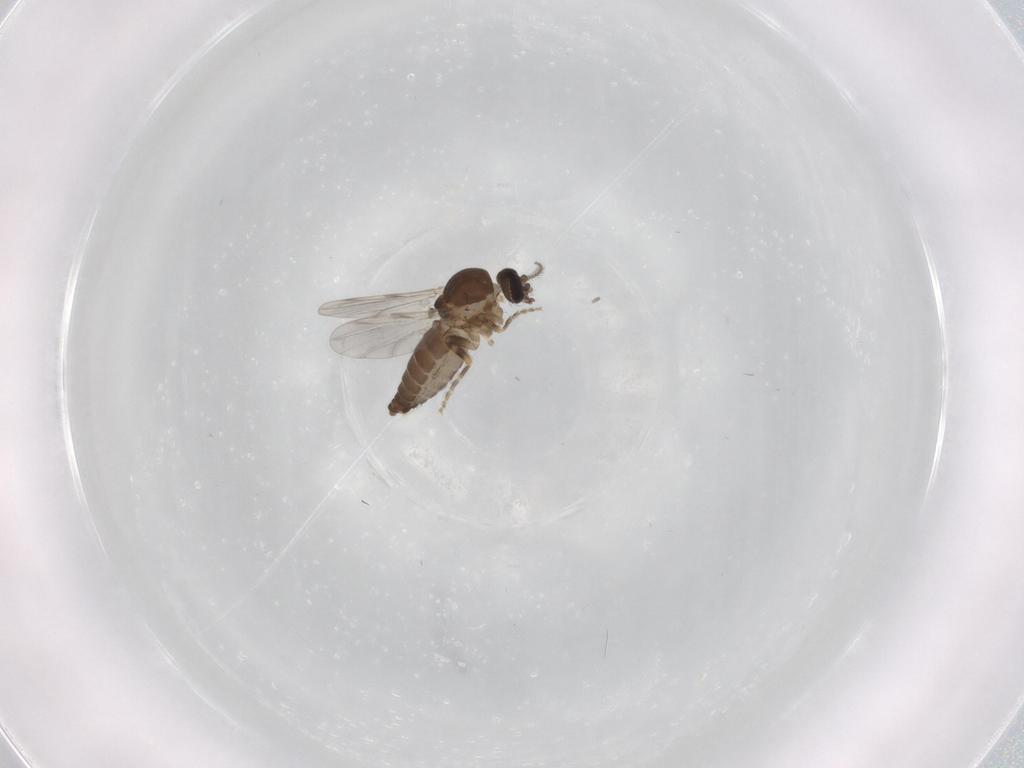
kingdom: Animalia
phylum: Arthropoda
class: Insecta
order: Diptera
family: Ceratopogonidae
